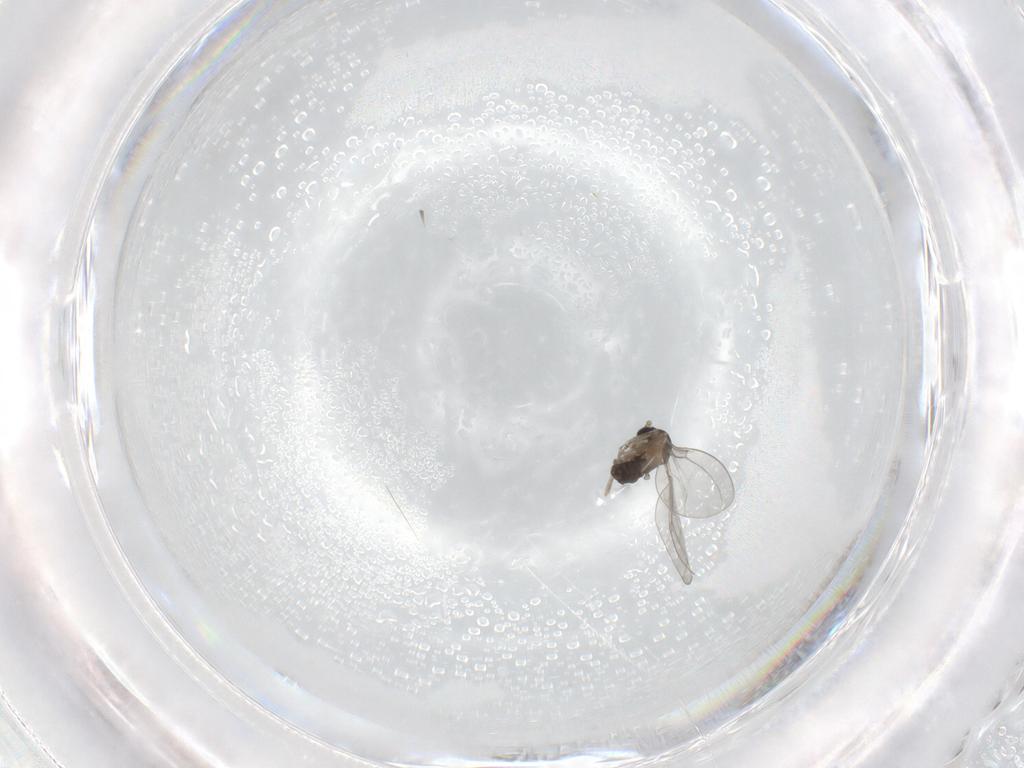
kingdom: Animalia
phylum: Arthropoda
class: Insecta
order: Diptera
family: Cecidomyiidae
